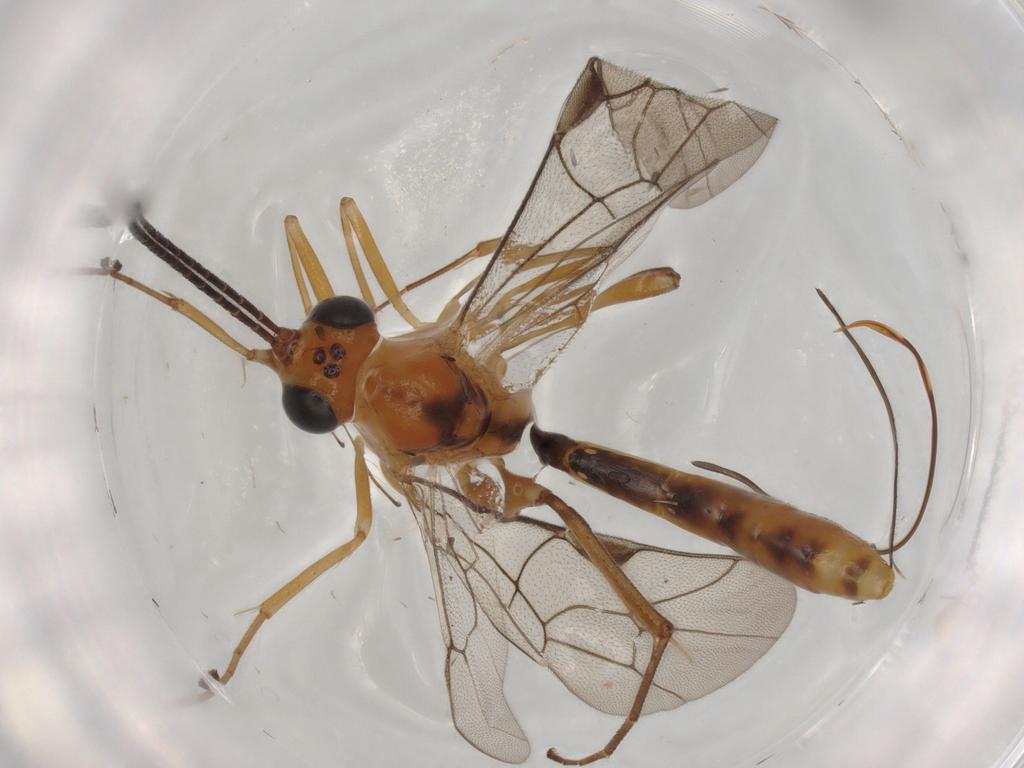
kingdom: Animalia
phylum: Arthropoda
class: Insecta
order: Hymenoptera
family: Ichneumonidae
